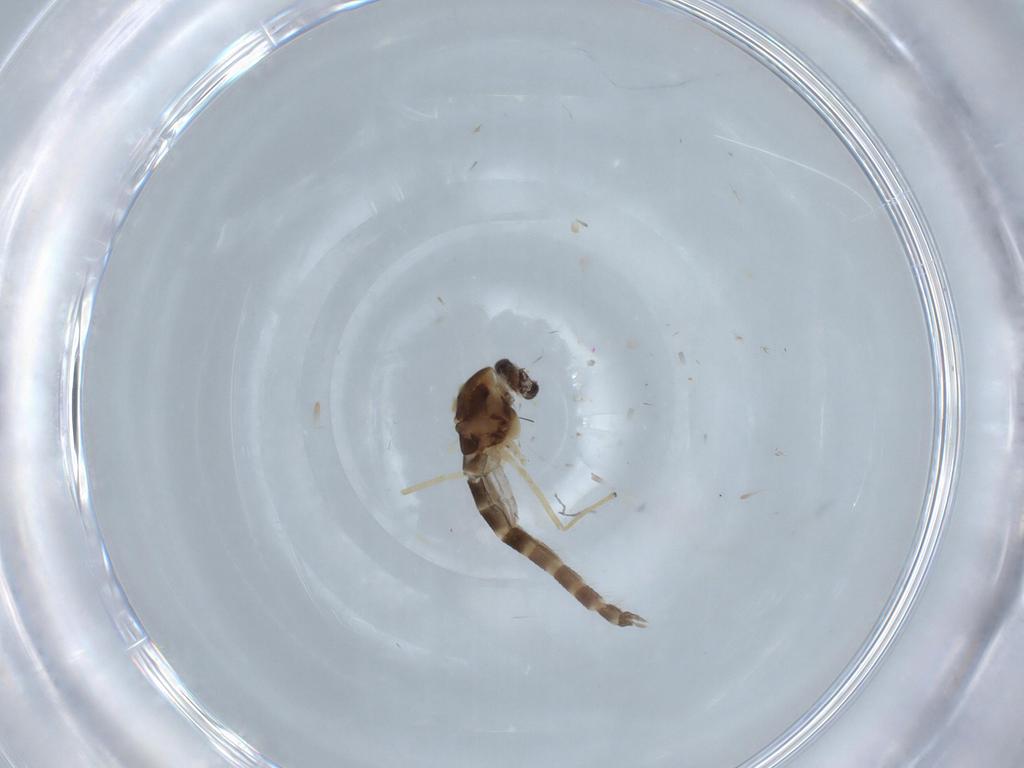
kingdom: Animalia
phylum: Arthropoda
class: Insecta
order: Diptera
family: Chironomidae
